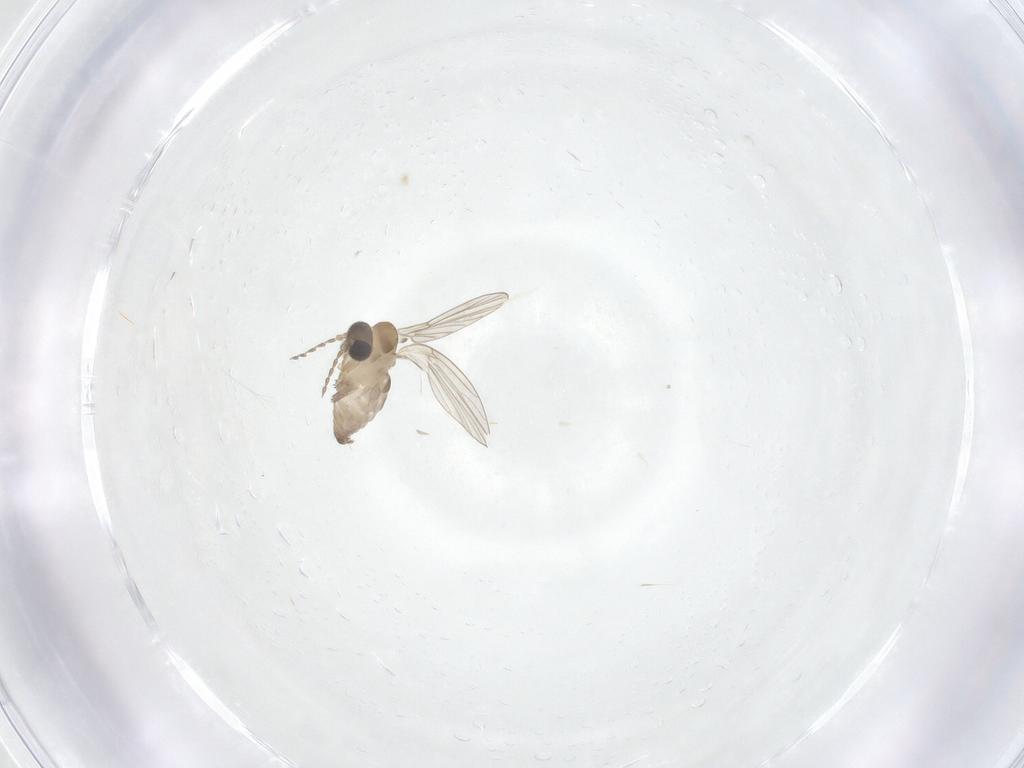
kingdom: Animalia
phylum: Arthropoda
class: Insecta
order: Diptera
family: Psychodidae
